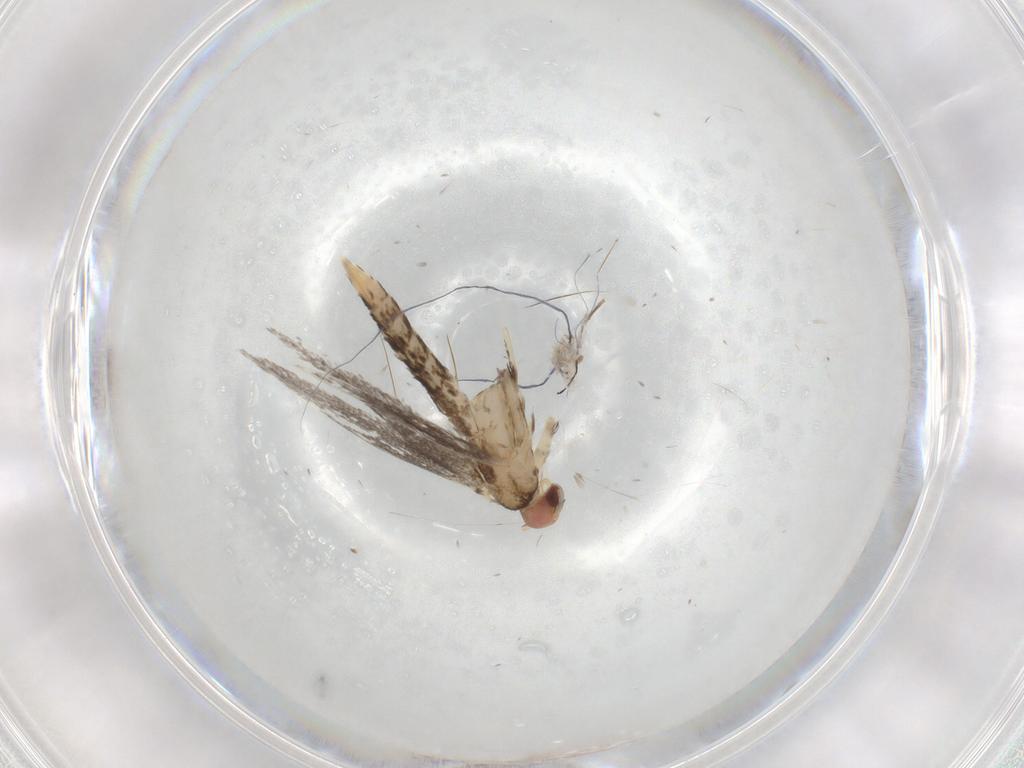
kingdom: Animalia
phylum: Arthropoda
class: Insecta
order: Lepidoptera
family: Gracillariidae
